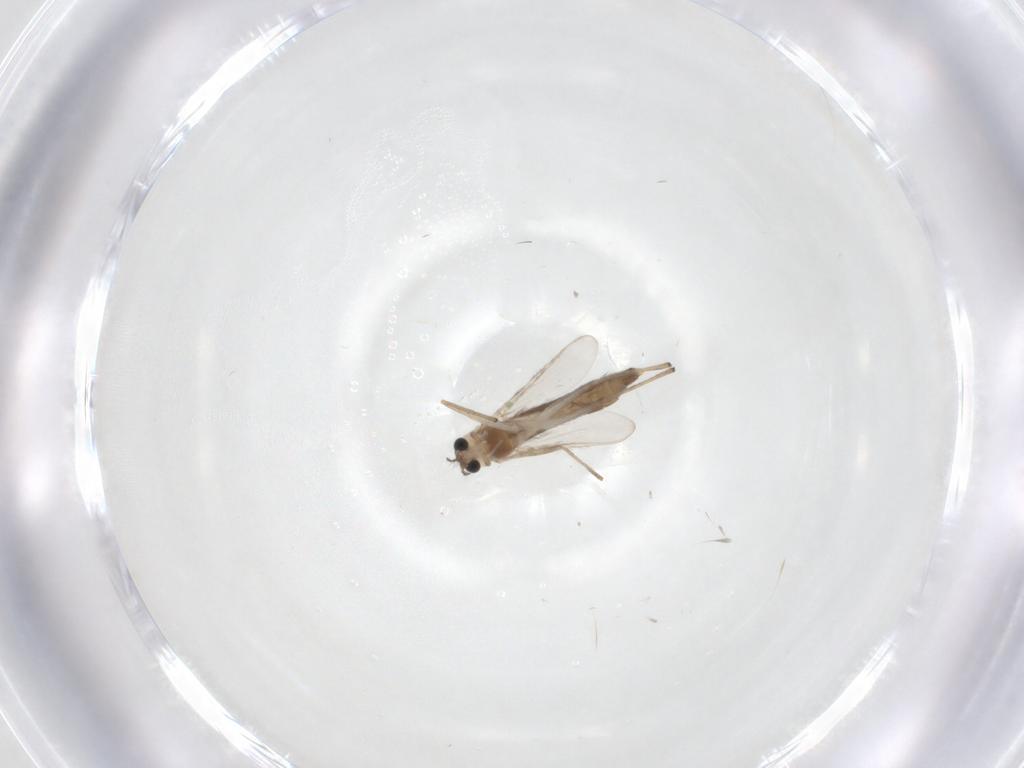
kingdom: Animalia
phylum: Arthropoda
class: Insecta
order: Diptera
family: Chironomidae
